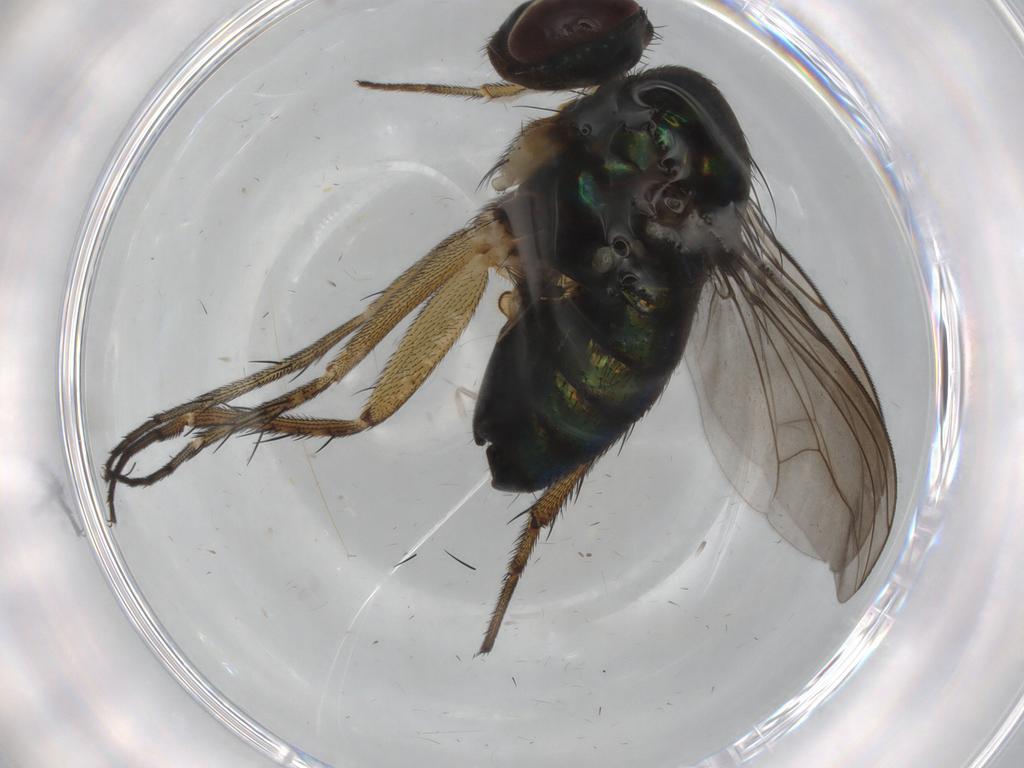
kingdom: Animalia
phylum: Arthropoda
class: Insecta
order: Diptera
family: Limoniidae
